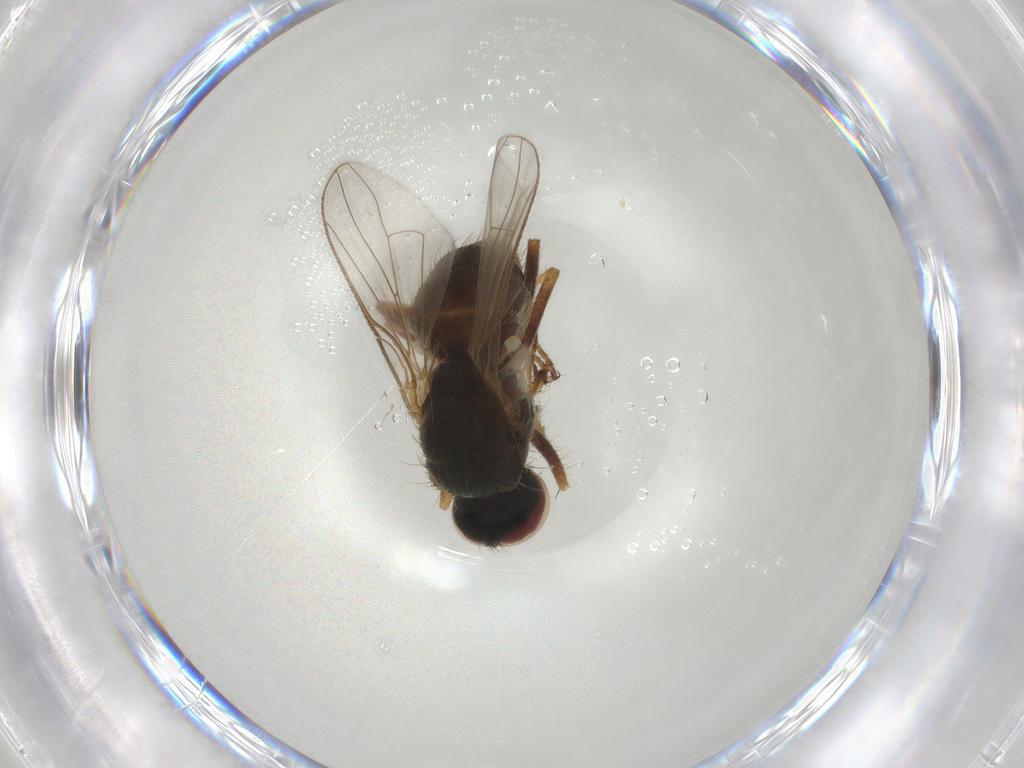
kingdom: Animalia
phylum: Arthropoda
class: Insecta
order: Diptera
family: Muscidae
